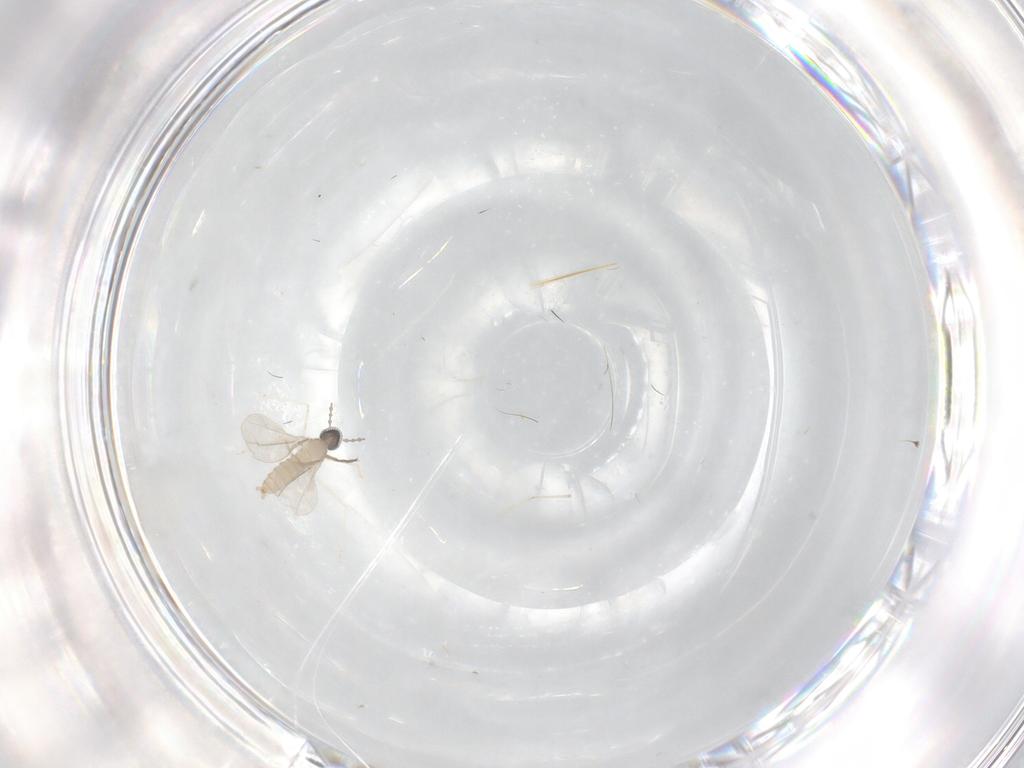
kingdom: Animalia
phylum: Arthropoda
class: Insecta
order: Diptera
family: Cecidomyiidae
